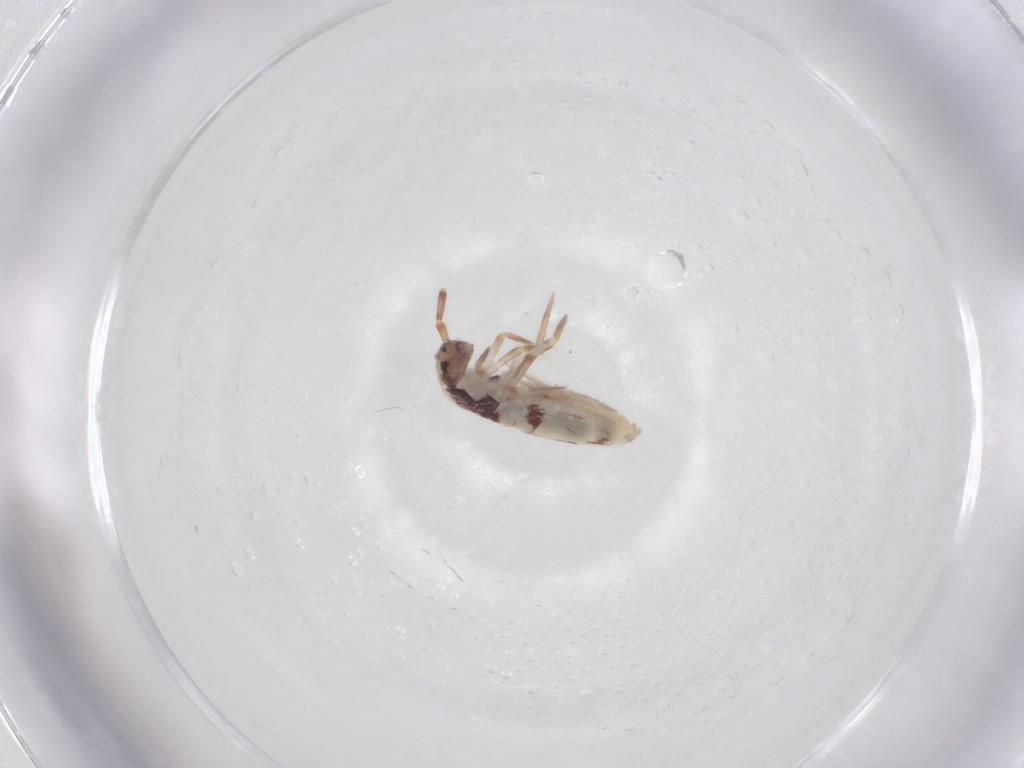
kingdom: Animalia
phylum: Arthropoda
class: Collembola
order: Entomobryomorpha
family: Entomobryidae
